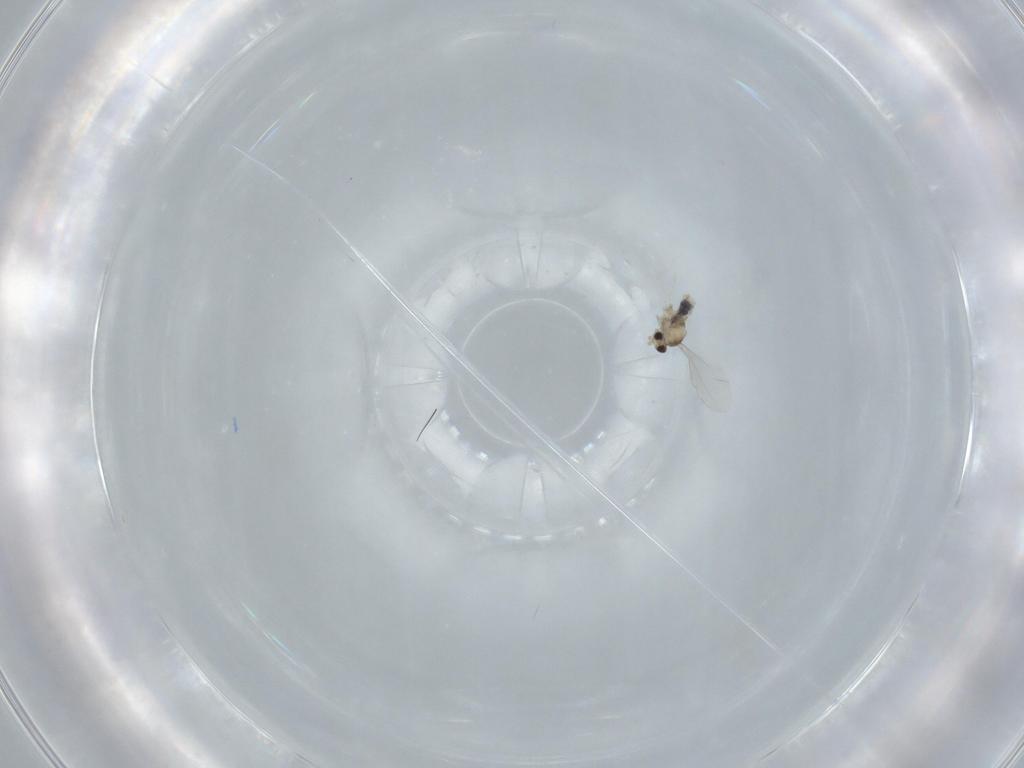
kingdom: Animalia
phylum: Arthropoda
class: Insecta
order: Diptera
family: Cecidomyiidae
